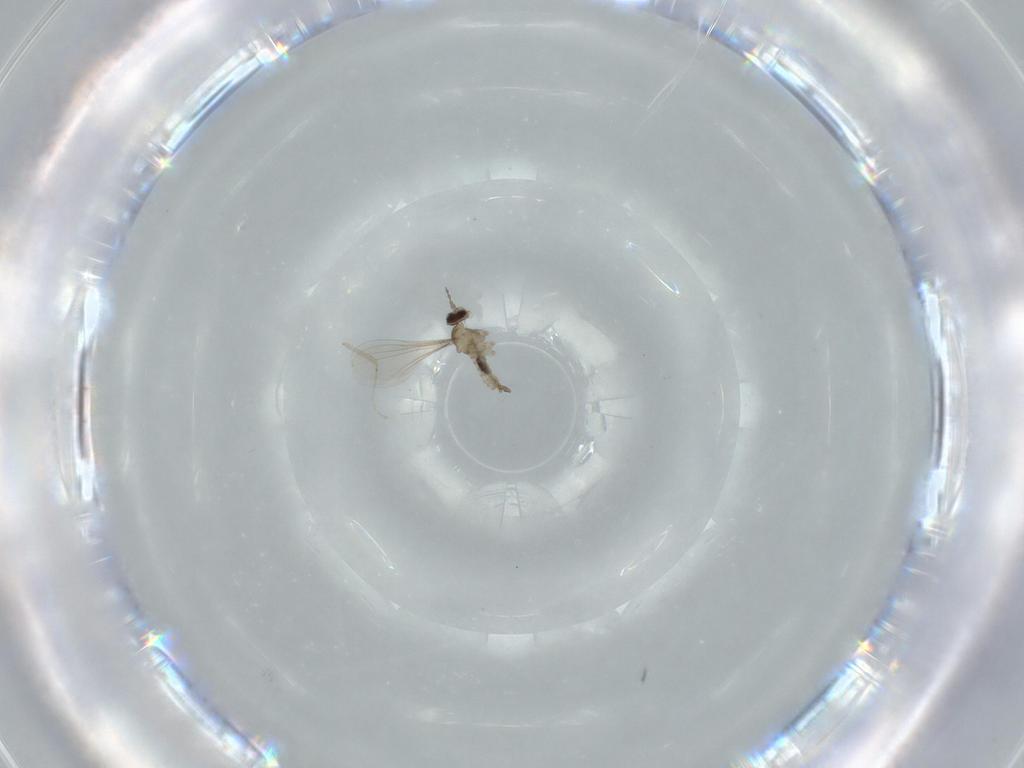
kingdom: Animalia
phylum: Arthropoda
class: Insecta
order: Diptera
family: Cecidomyiidae
